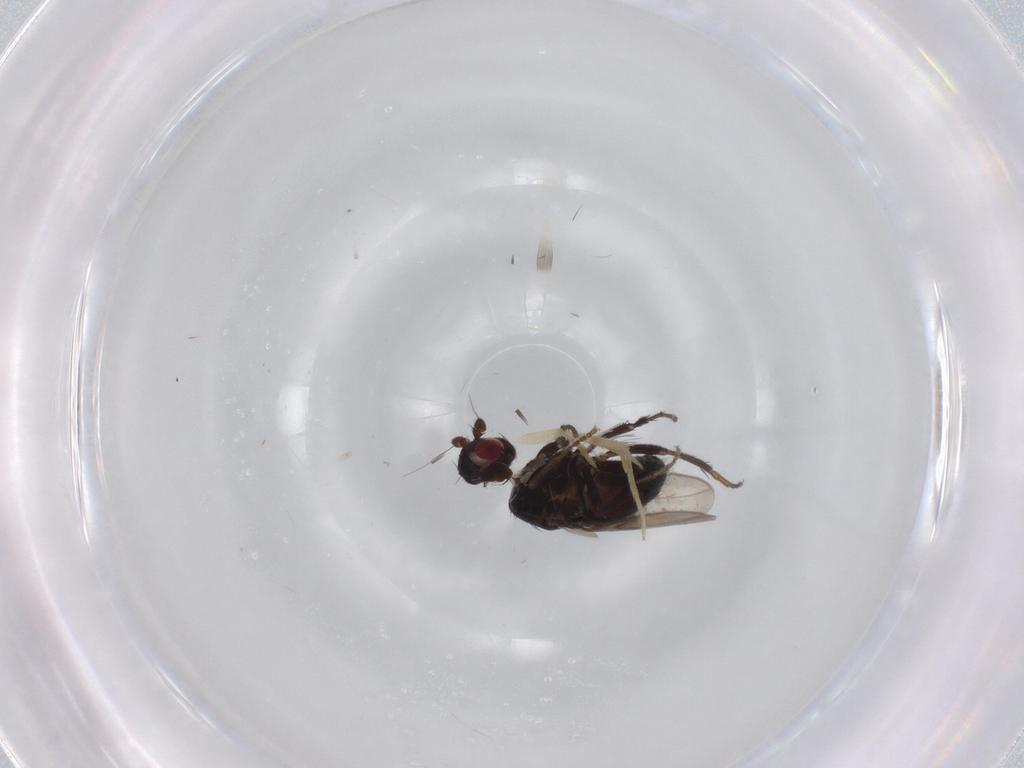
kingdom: Animalia
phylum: Arthropoda
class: Insecta
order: Diptera
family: Sphaeroceridae
